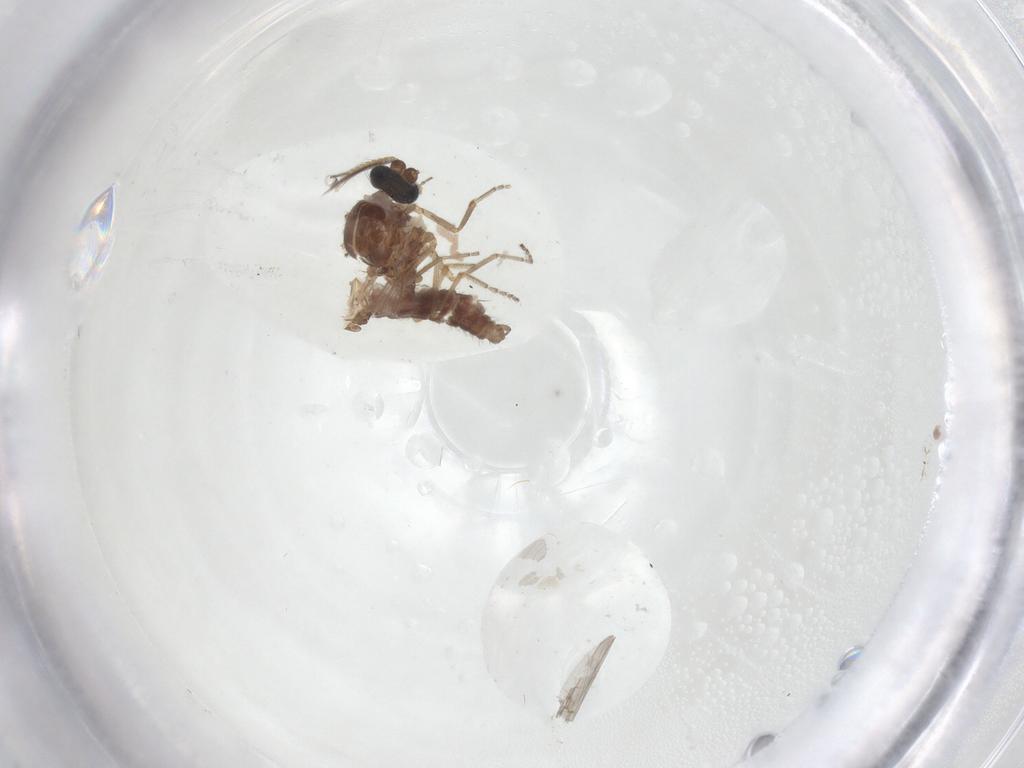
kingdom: Animalia
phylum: Arthropoda
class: Insecta
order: Diptera
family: Ceratopogonidae
